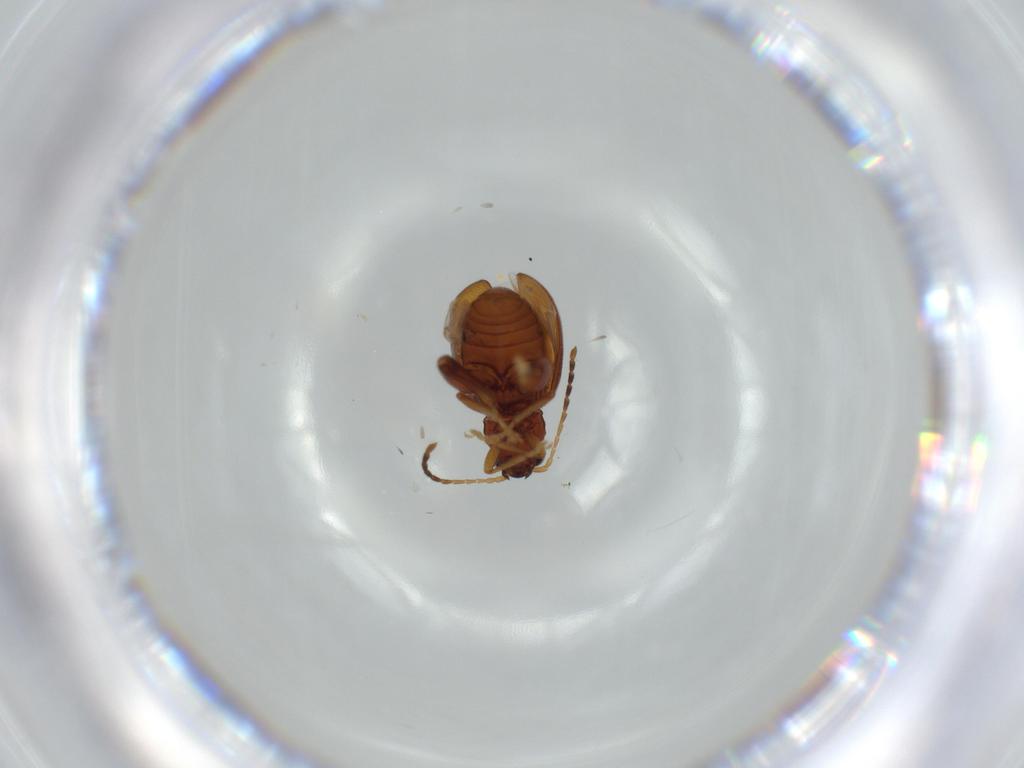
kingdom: Animalia
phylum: Arthropoda
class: Insecta
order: Coleoptera
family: Chrysomelidae
